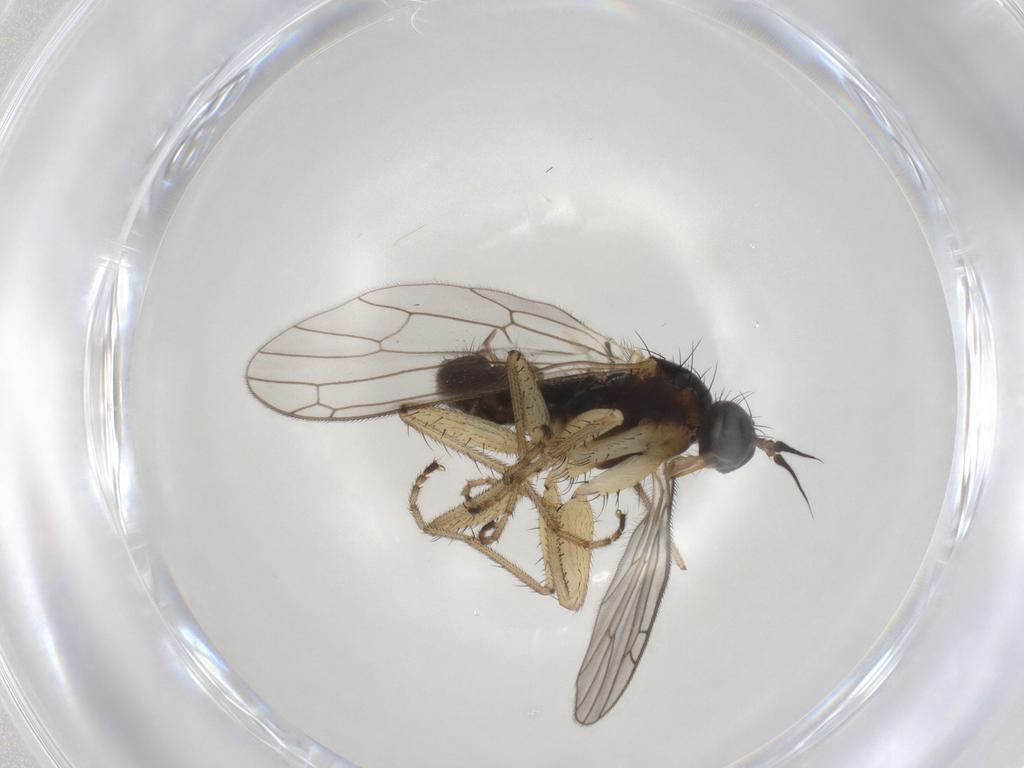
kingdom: Animalia
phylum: Arthropoda
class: Insecta
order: Diptera
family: Empididae
